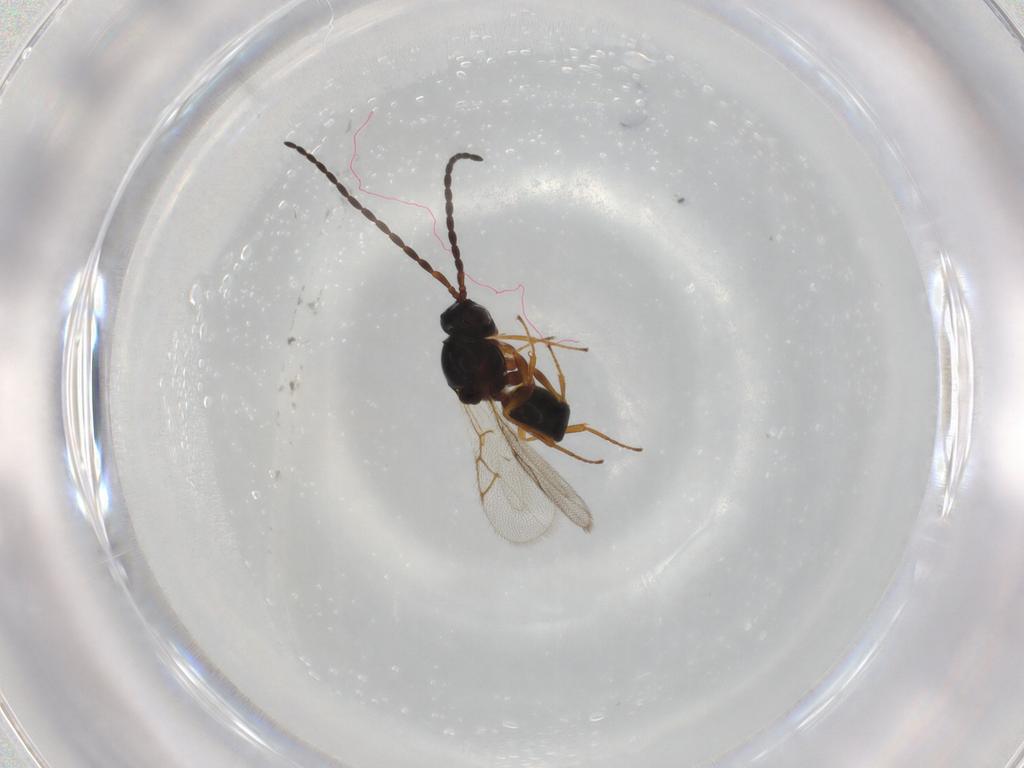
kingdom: Animalia
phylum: Arthropoda
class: Insecta
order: Hymenoptera
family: Figitidae
